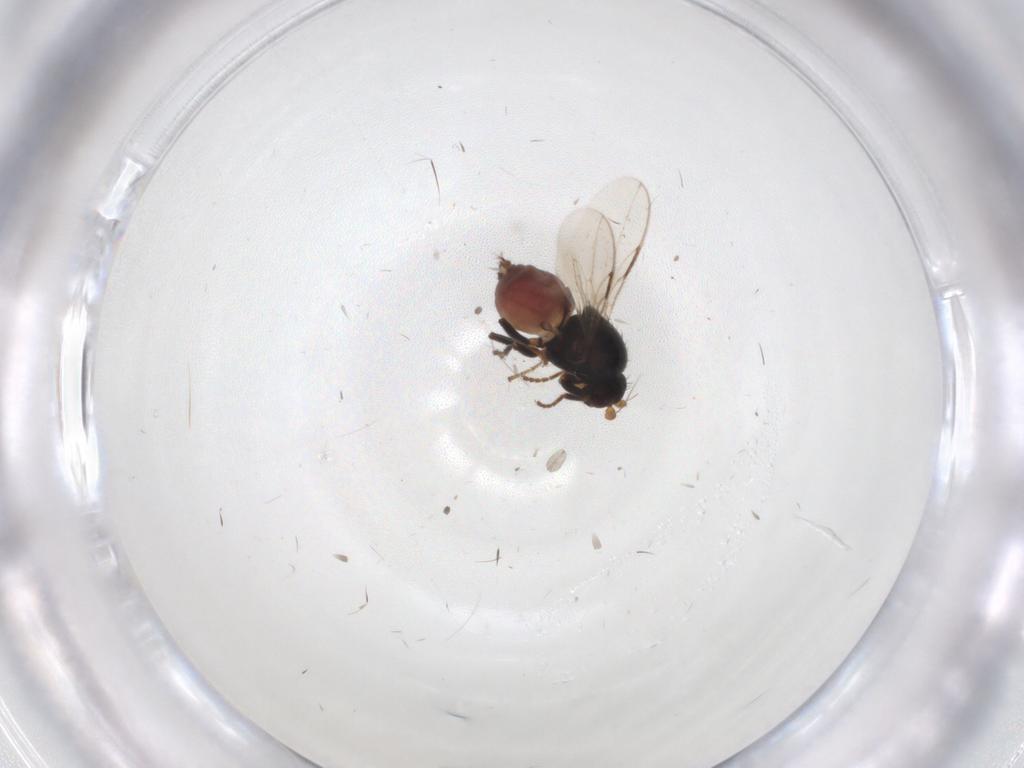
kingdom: Animalia
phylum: Arthropoda
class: Insecta
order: Diptera
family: Sphaeroceridae
